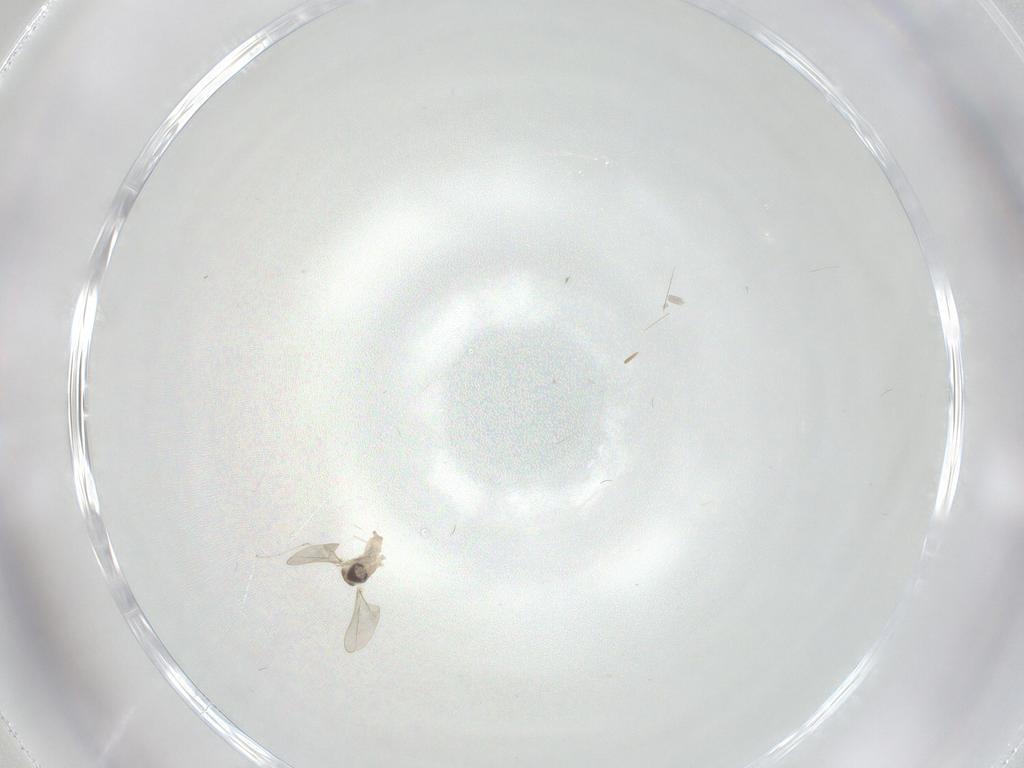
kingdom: Animalia
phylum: Arthropoda
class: Insecta
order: Diptera
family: Cecidomyiidae
